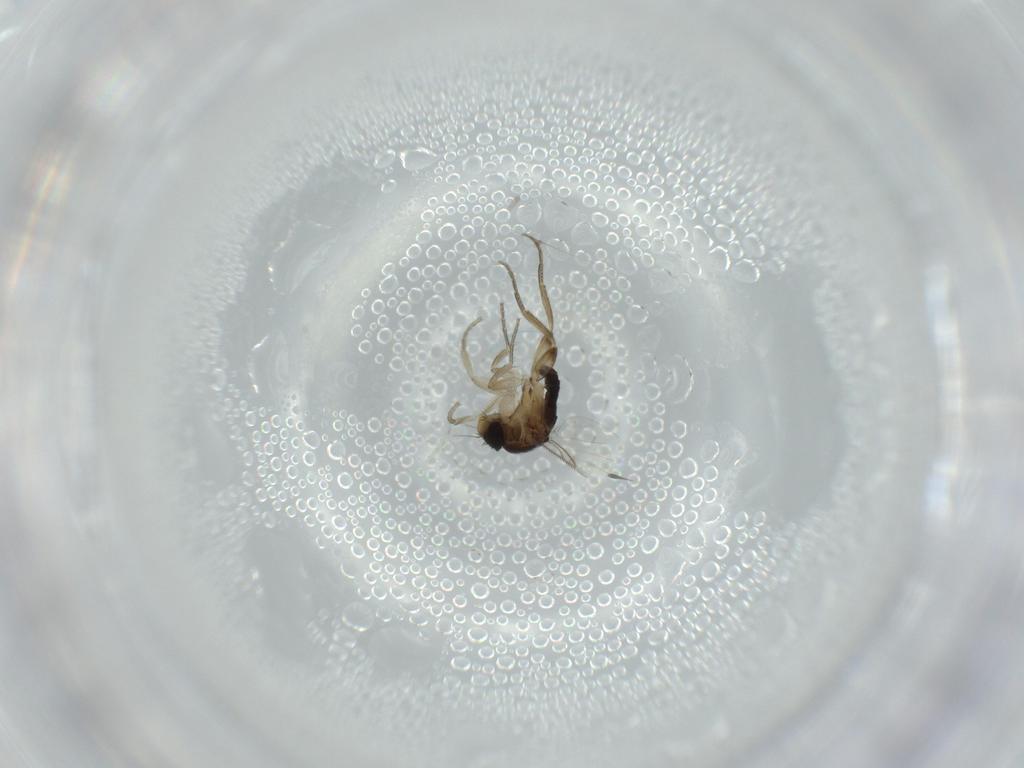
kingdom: Animalia
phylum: Arthropoda
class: Insecta
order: Diptera
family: Phoridae
